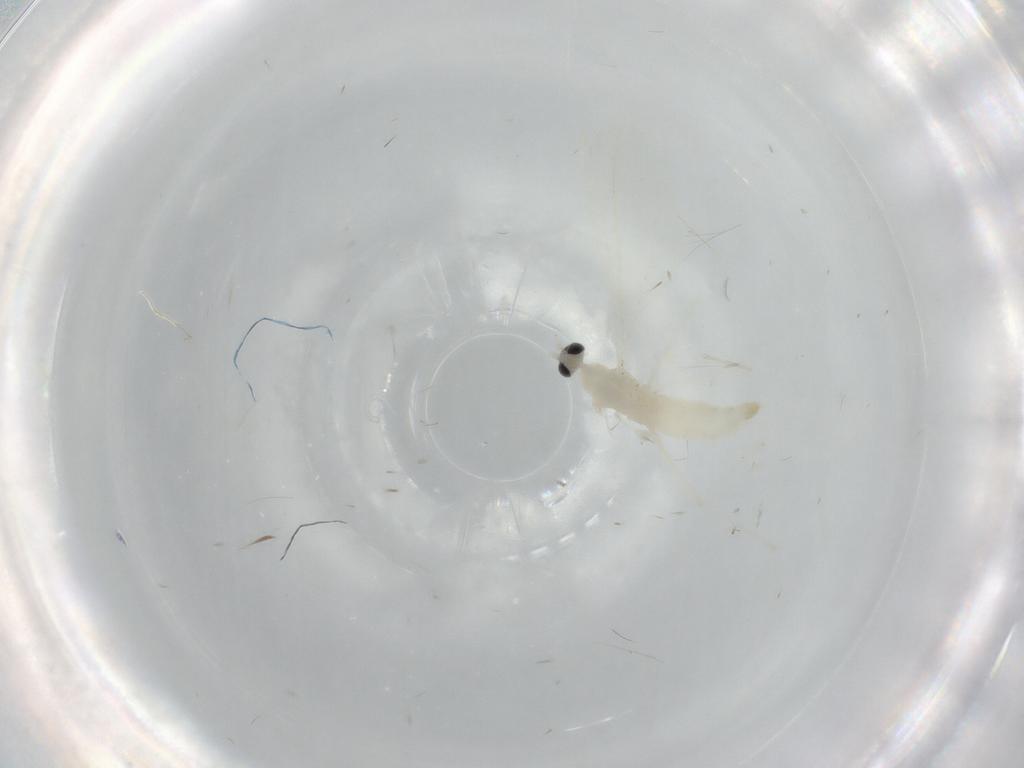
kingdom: Animalia
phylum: Arthropoda
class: Insecta
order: Diptera
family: Cecidomyiidae
